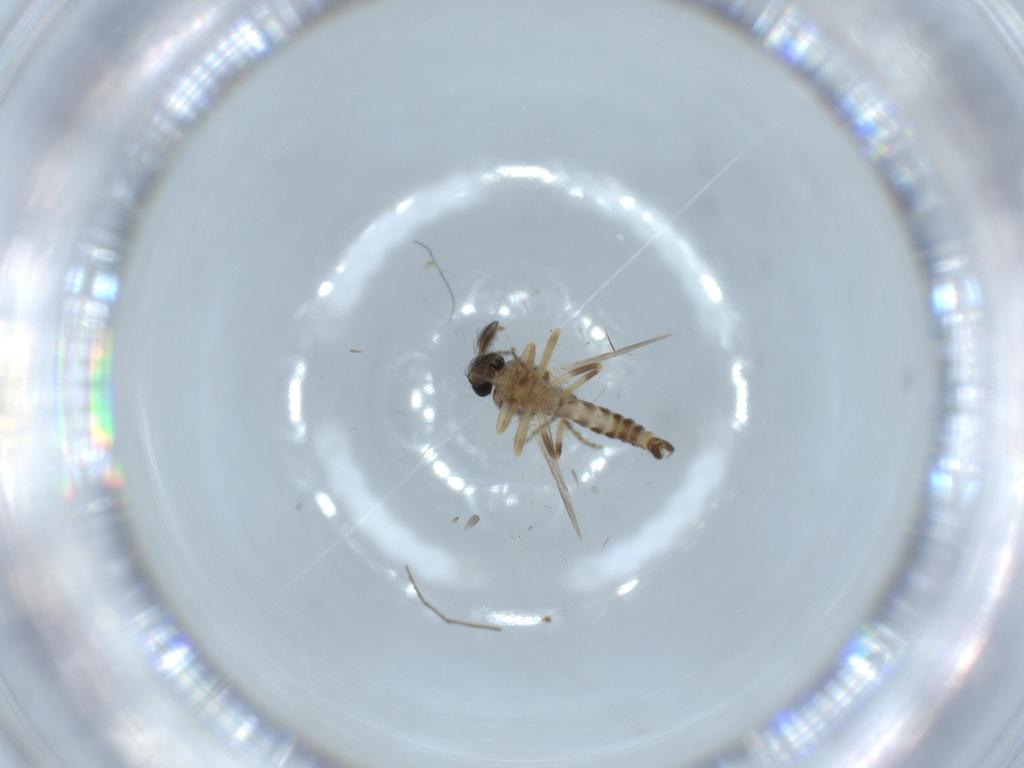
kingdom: Animalia
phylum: Arthropoda
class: Insecta
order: Diptera
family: Ceratopogonidae
